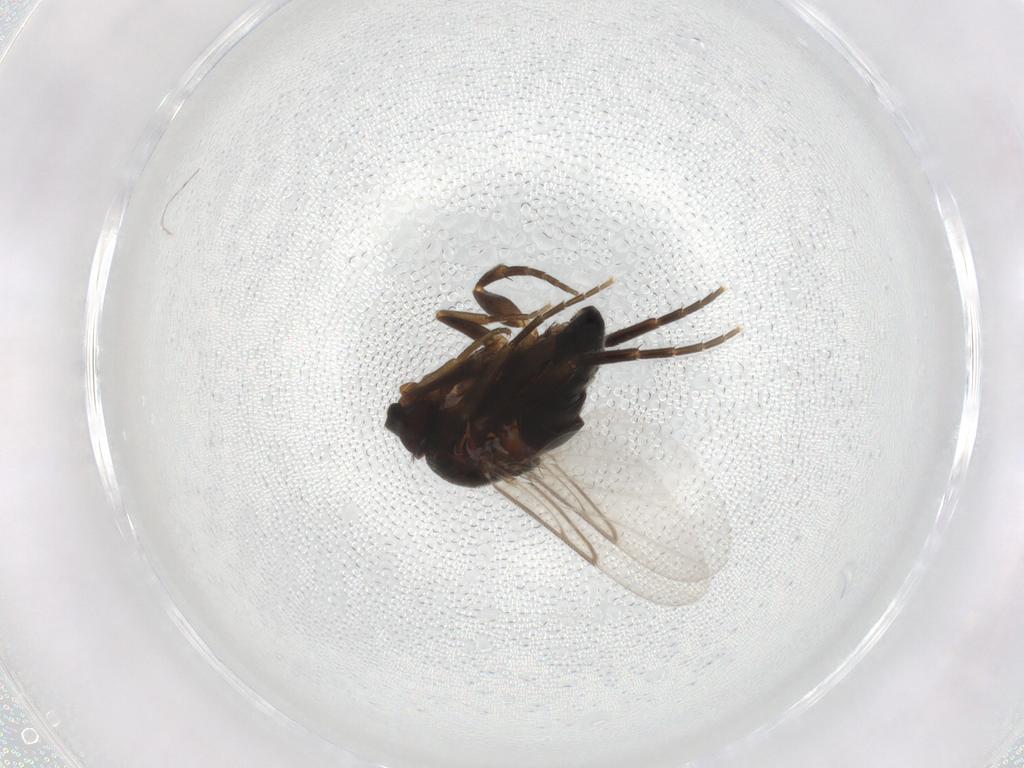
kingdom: Animalia
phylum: Arthropoda
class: Insecta
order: Diptera
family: Phoridae
